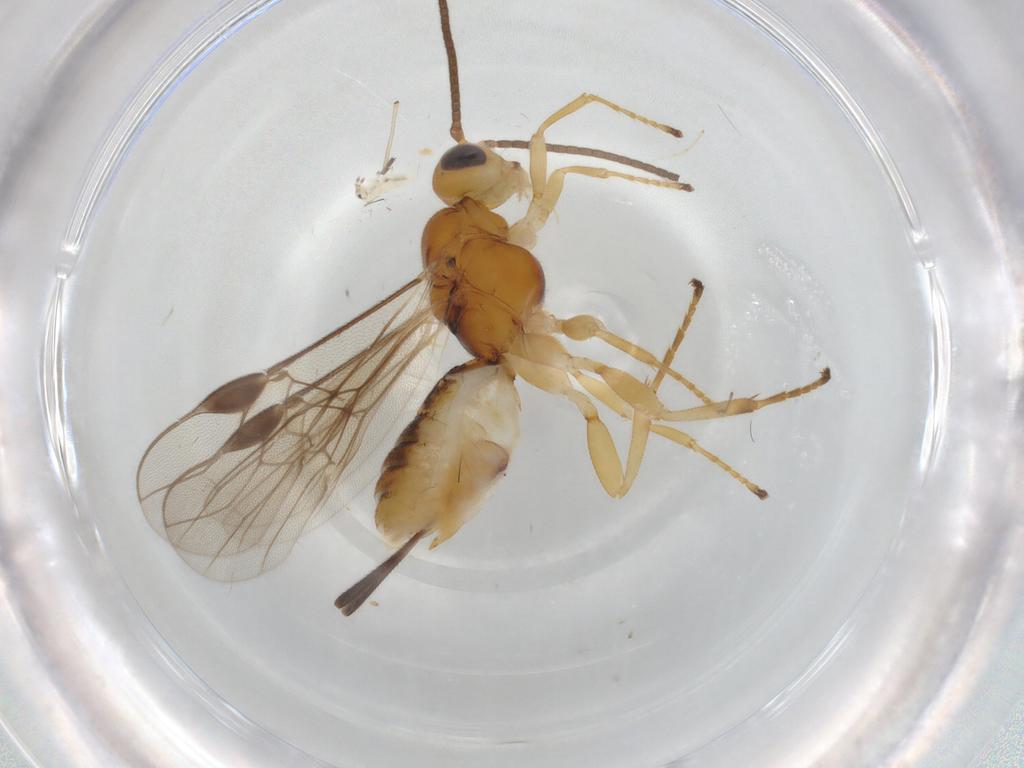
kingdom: Animalia
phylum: Arthropoda
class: Insecta
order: Hymenoptera
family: Braconidae
